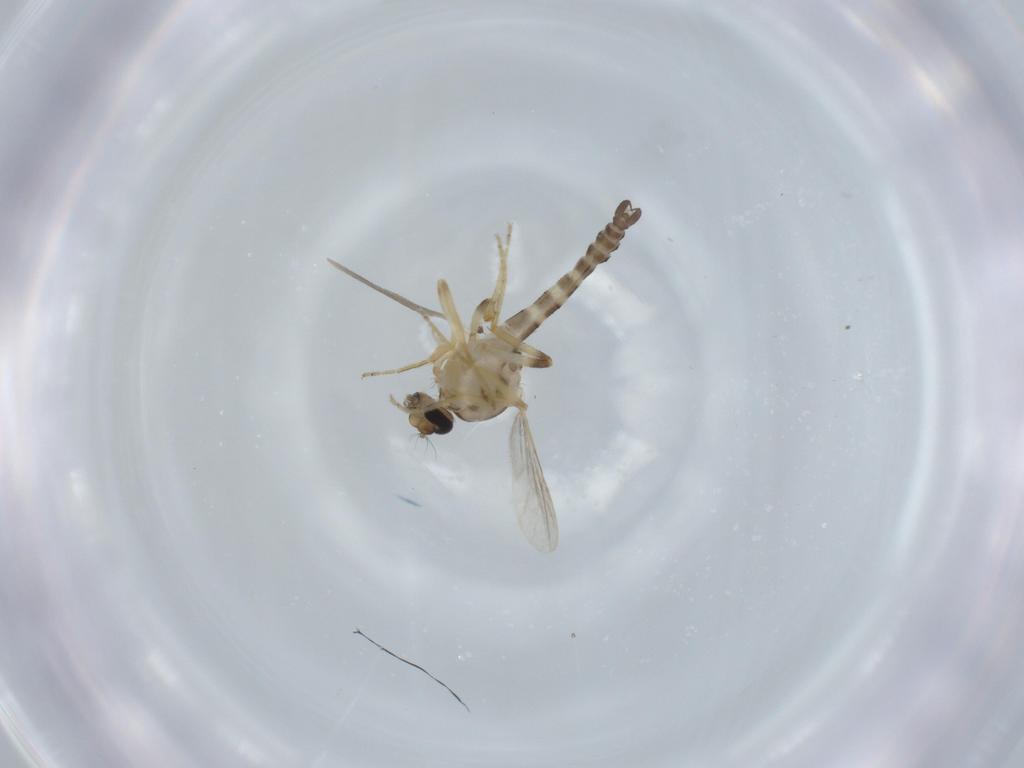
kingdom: Animalia
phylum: Arthropoda
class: Insecta
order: Diptera
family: Ceratopogonidae
